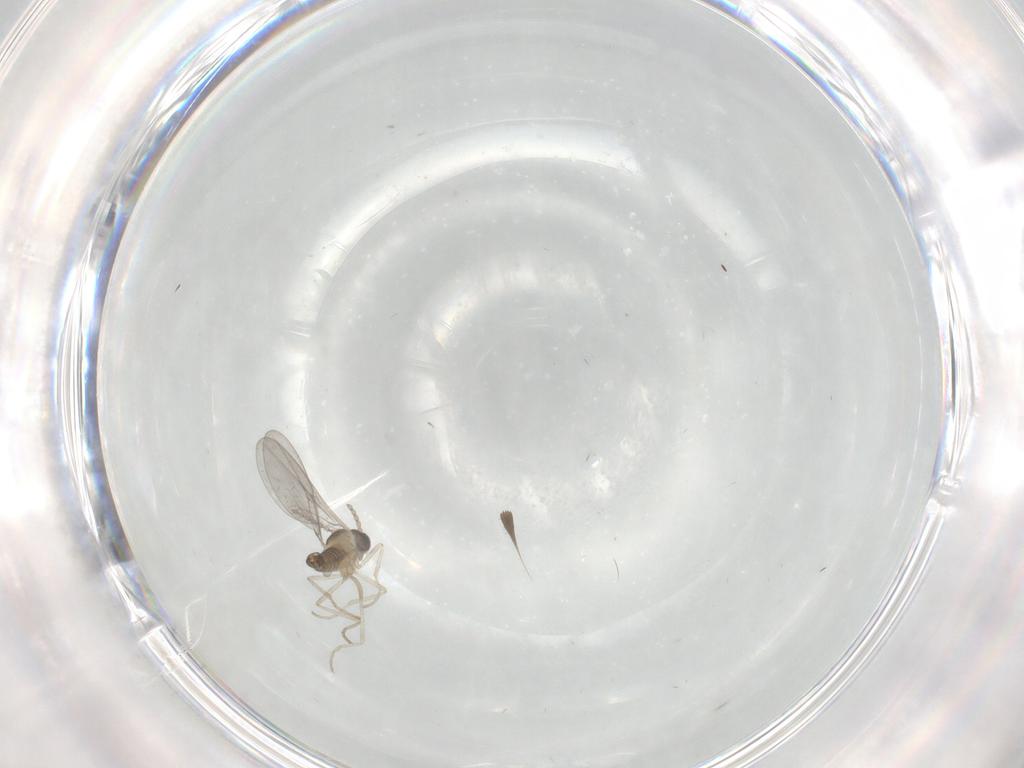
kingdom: Animalia
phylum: Arthropoda
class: Insecta
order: Diptera
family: Cecidomyiidae
